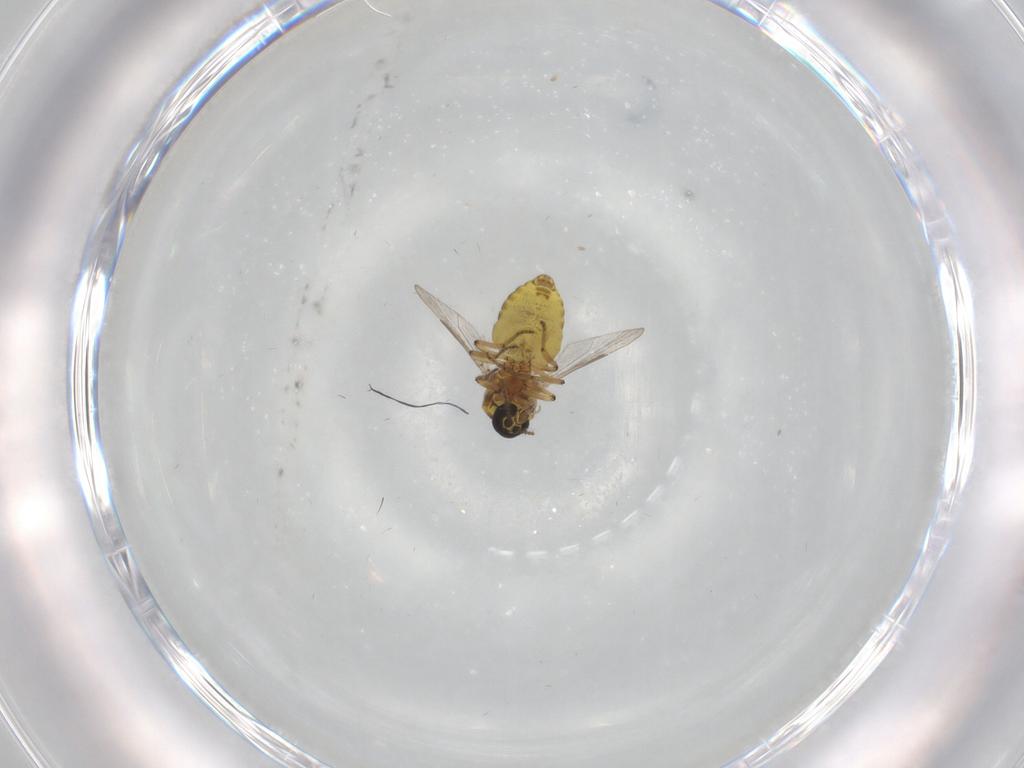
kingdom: Animalia
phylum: Arthropoda
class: Insecta
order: Diptera
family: Ceratopogonidae
